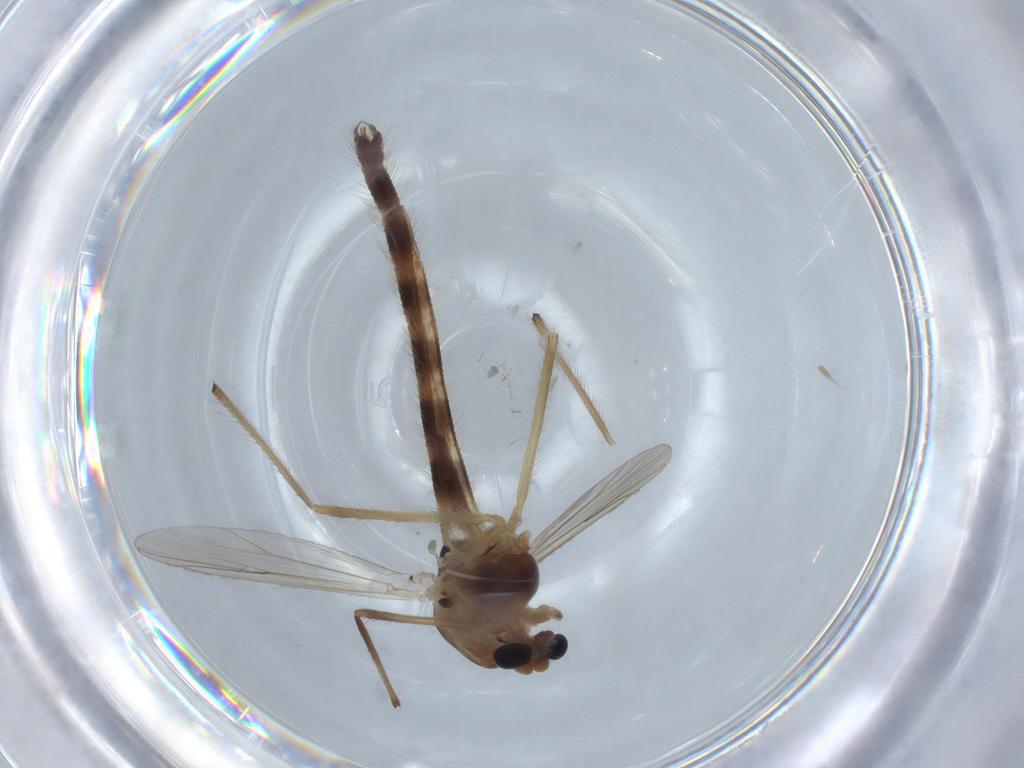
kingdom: Animalia
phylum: Arthropoda
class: Insecta
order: Diptera
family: Chironomidae
